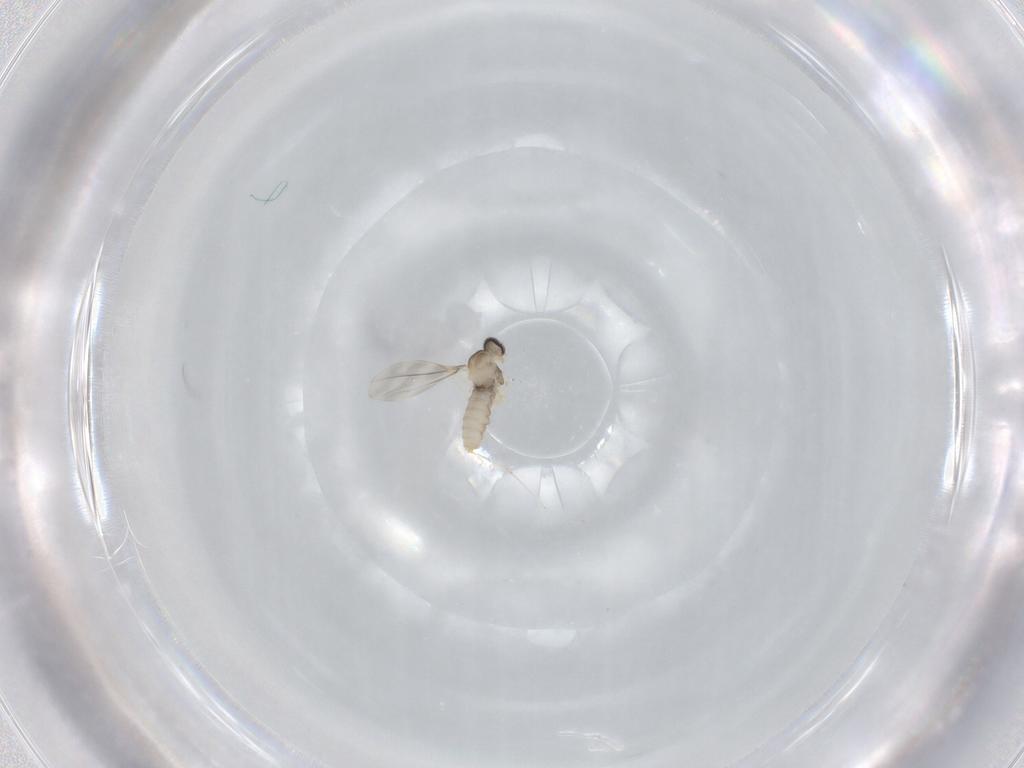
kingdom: Animalia
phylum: Arthropoda
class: Insecta
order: Diptera
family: Cecidomyiidae
